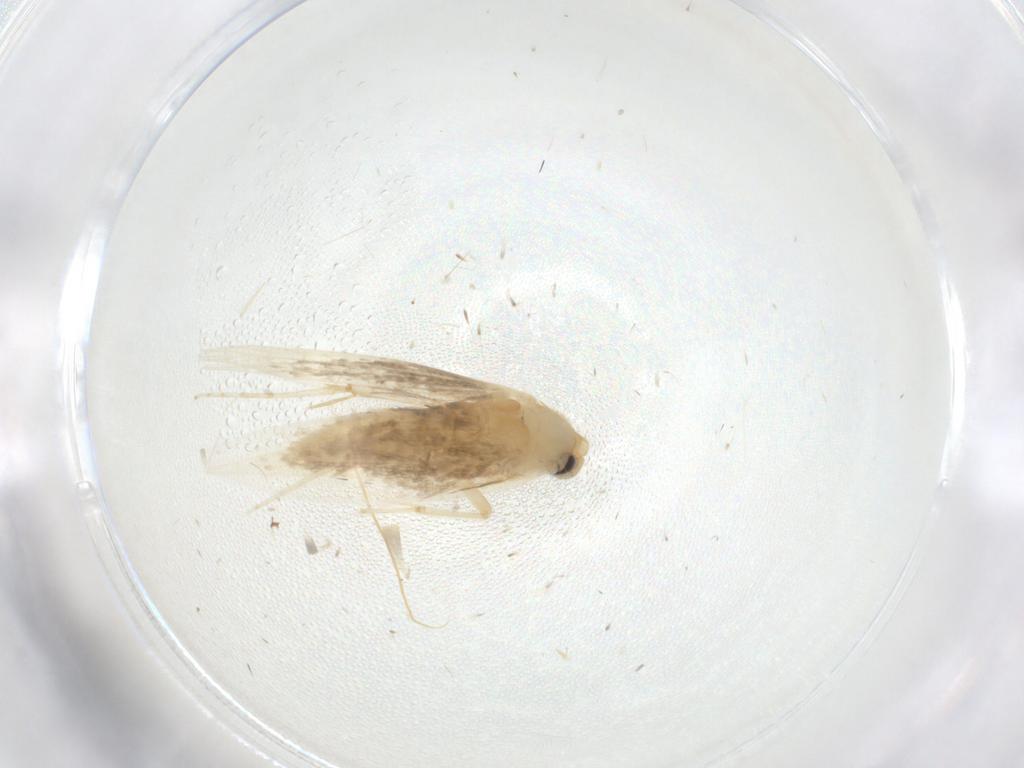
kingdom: Animalia
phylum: Arthropoda
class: Insecta
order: Lepidoptera
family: Tineidae
